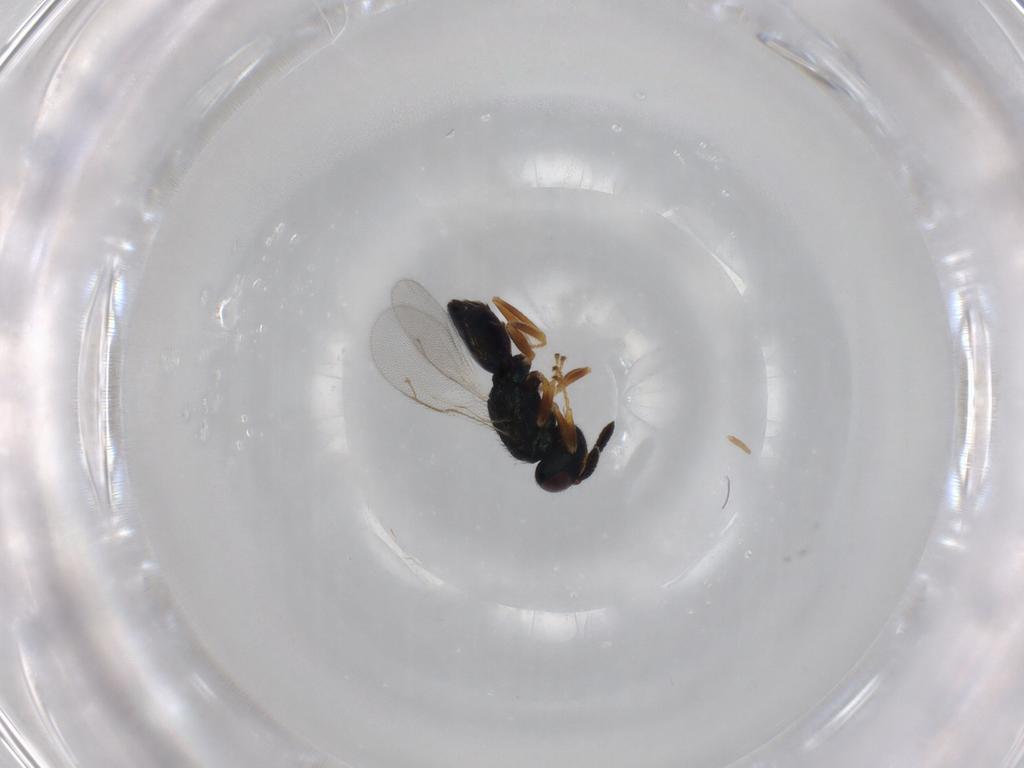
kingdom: Animalia
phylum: Arthropoda
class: Insecta
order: Hymenoptera
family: Pteromalidae
